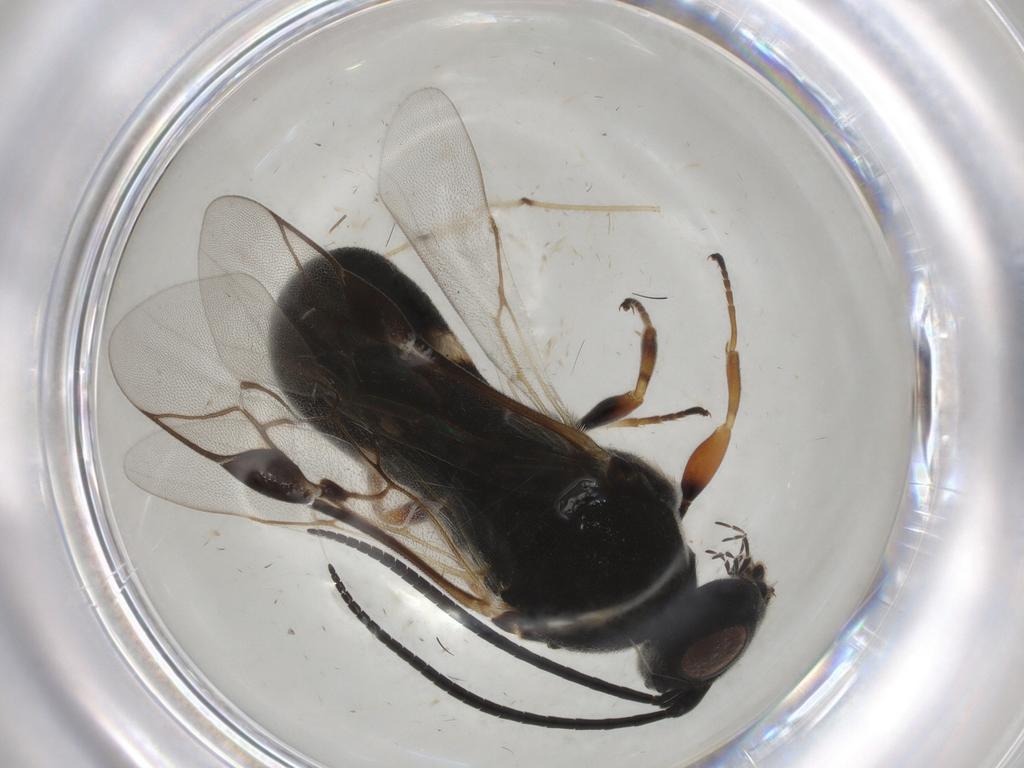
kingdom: Animalia
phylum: Arthropoda
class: Insecta
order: Hymenoptera
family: Braconidae
